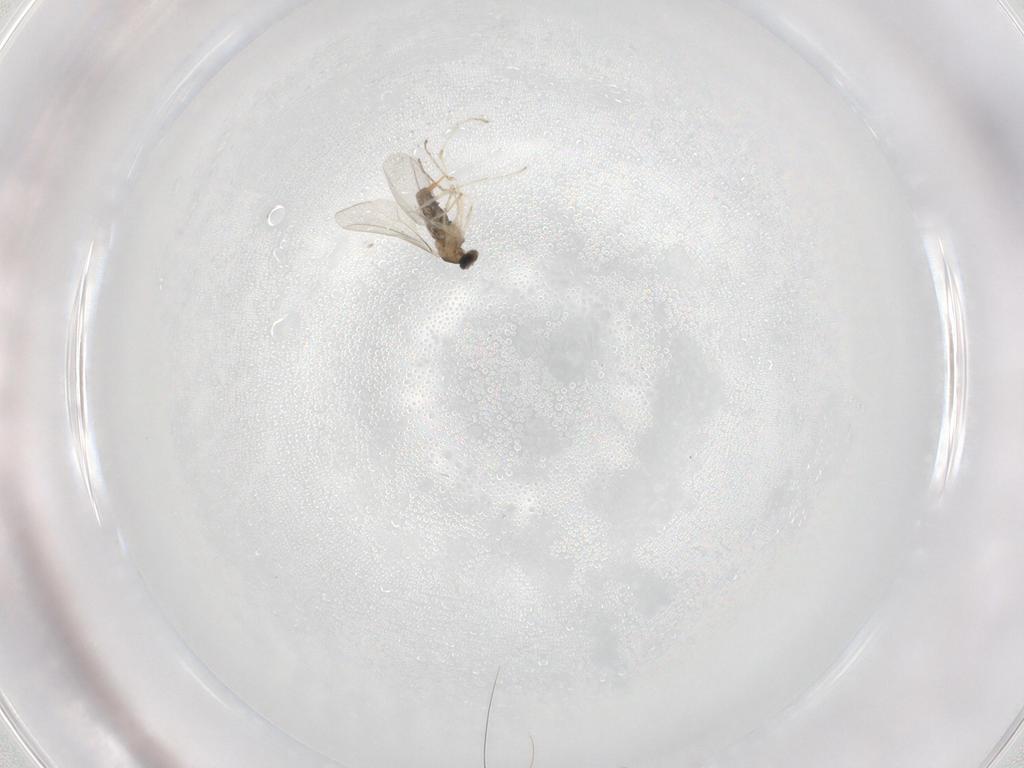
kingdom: Animalia
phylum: Arthropoda
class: Insecta
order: Diptera
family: Cecidomyiidae
